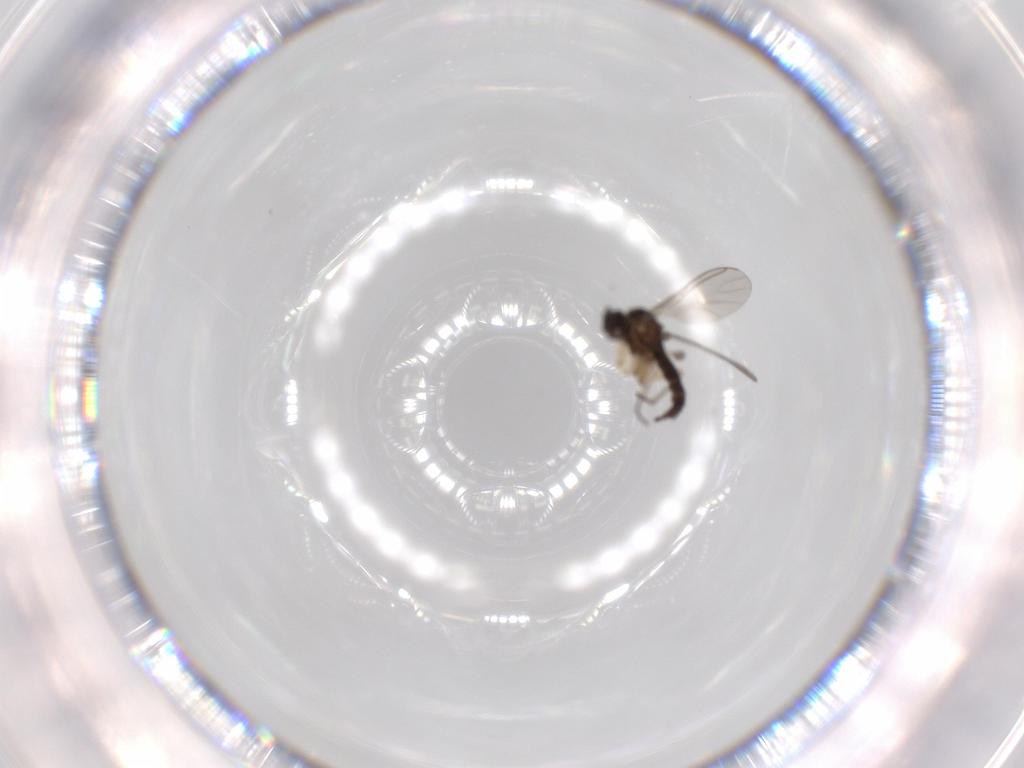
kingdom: Animalia
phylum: Arthropoda
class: Insecta
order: Diptera
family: Sciaridae
